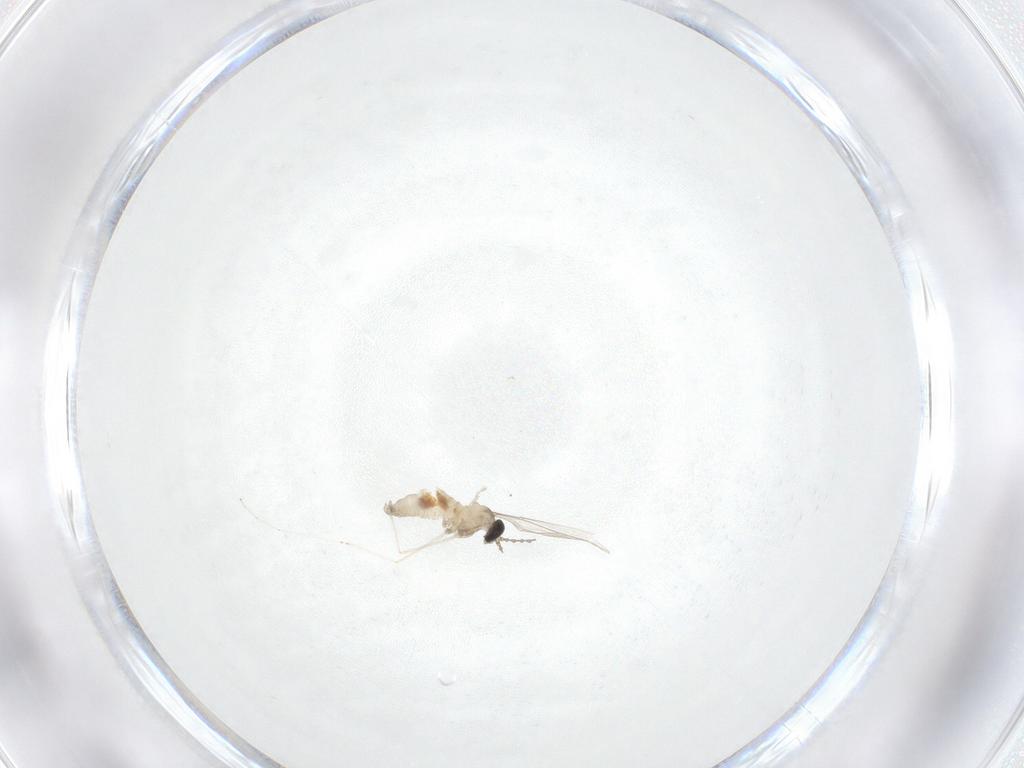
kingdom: Animalia
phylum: Arthropoda
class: Insecta
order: Diptera
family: Cecidomyiidae
